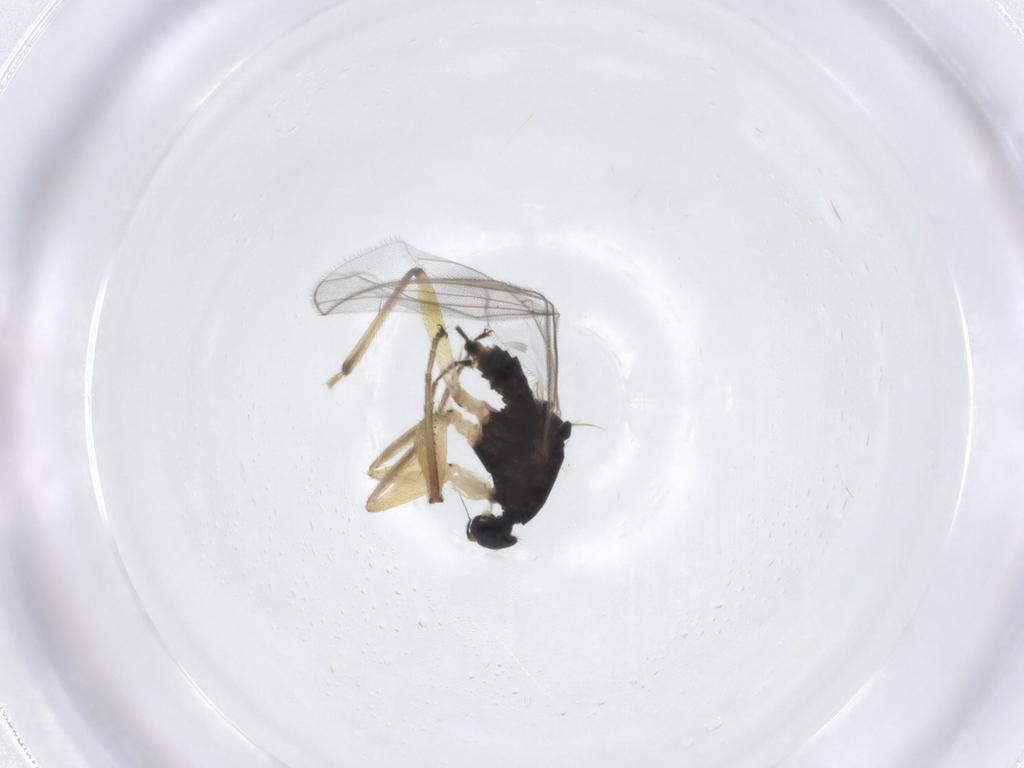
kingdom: Animalia
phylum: Arthropoda
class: Insecta
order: Diptera
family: Hybotidae
